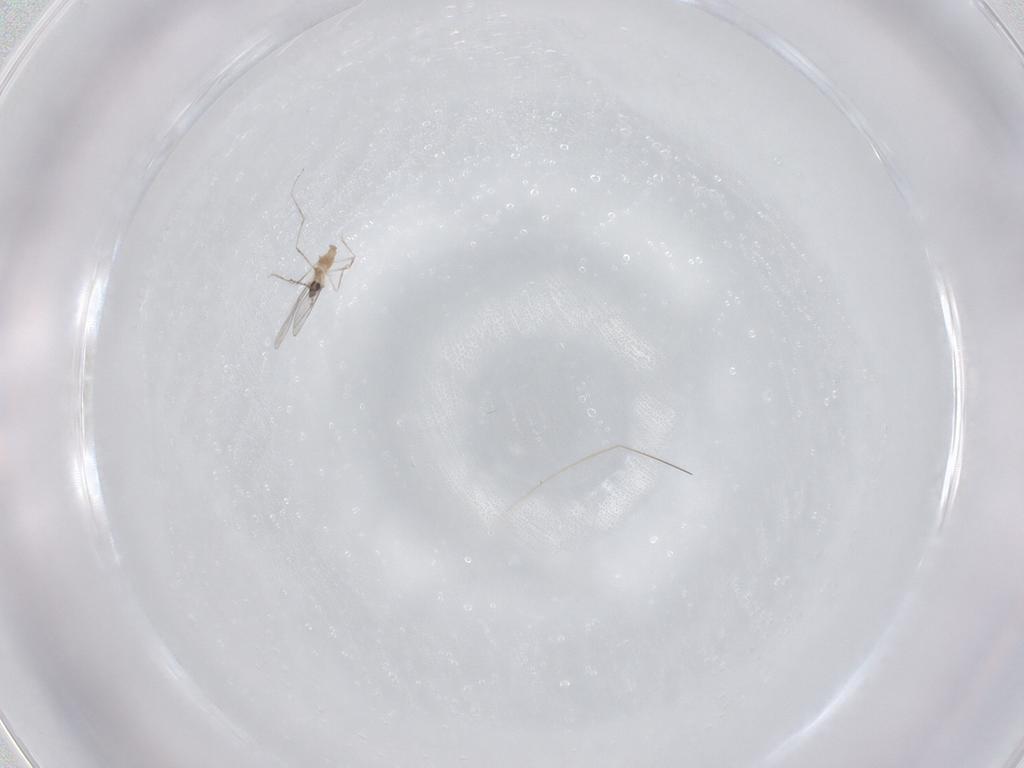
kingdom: Animalia
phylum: Arthropoda
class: Insecta
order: Diptera
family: Cecidomyiidae
